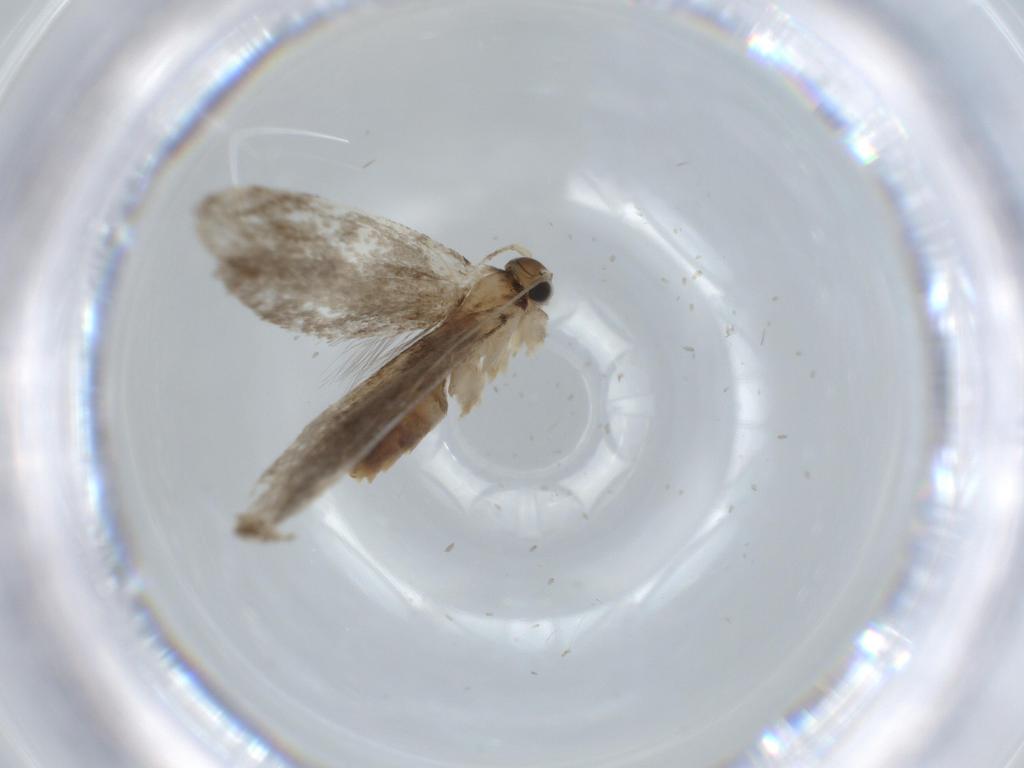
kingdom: Animalia
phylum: Arthropoda
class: Insecta
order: Lepidoptera
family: Tineidae
